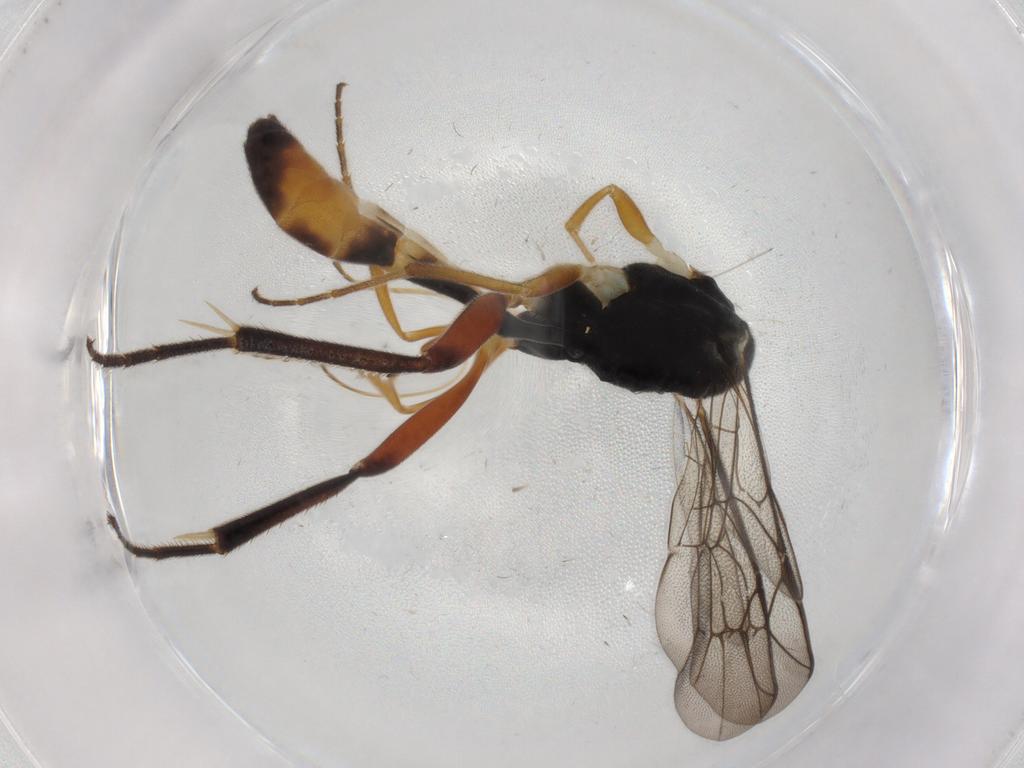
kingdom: Animalia
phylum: Arthropoda
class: Insecta
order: Hymenoptera
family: Ichneumonidae
